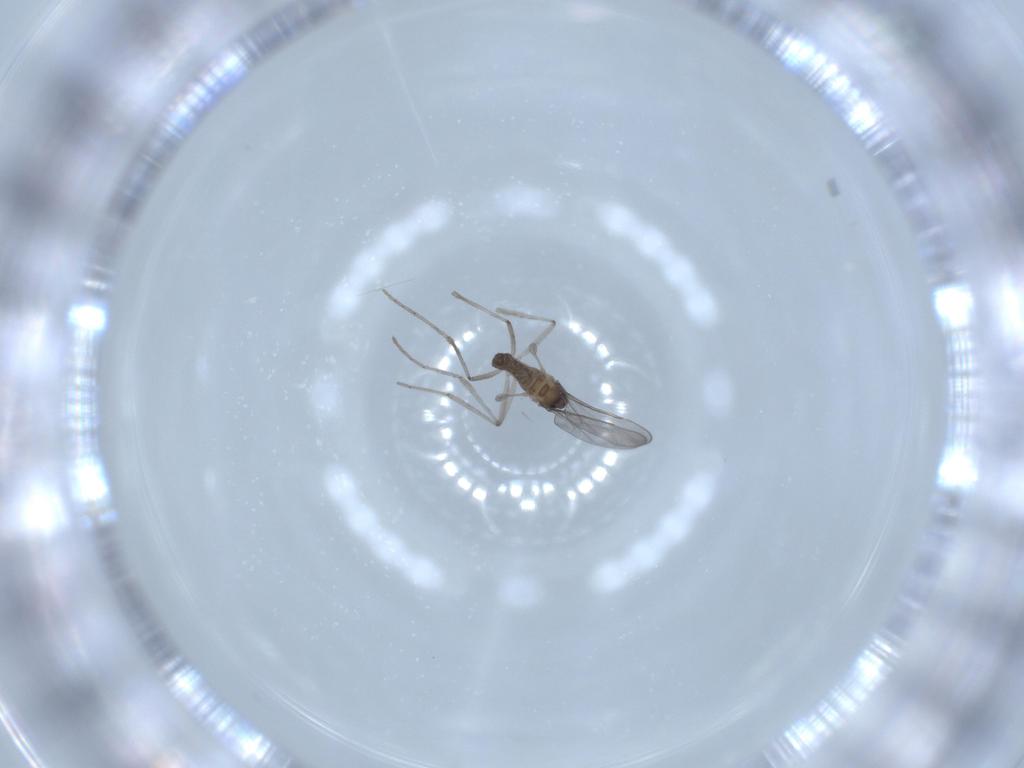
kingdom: Animalia
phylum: Arthropoda
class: Insecta
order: Diptera
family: Cecidomyiidae
